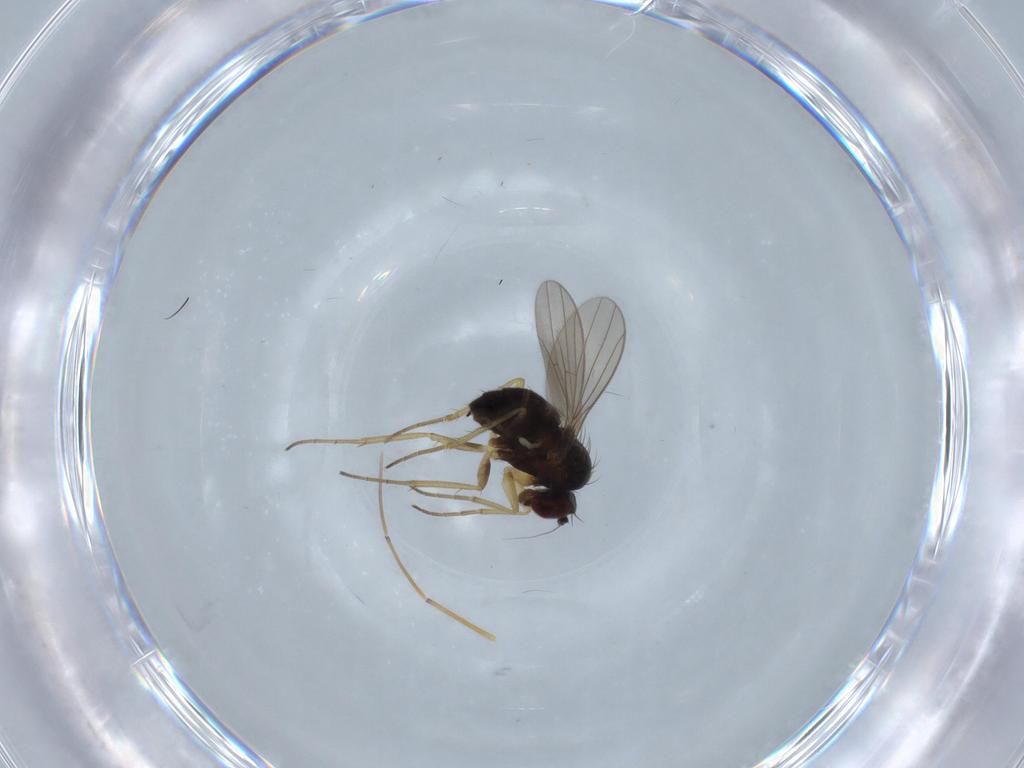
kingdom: Animalia
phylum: Arthropoda
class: Insecta
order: Diptera
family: Dolichopodidae
